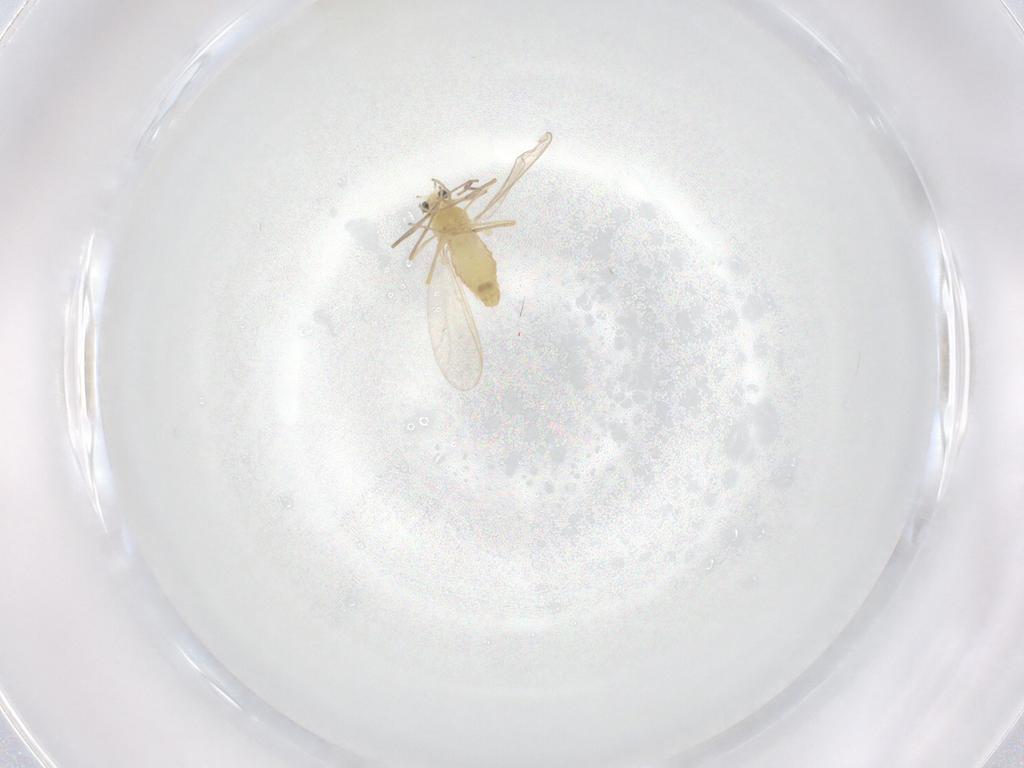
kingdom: Animalia
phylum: Arthropoda
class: Insecta
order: Diptera
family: Chironomidae
